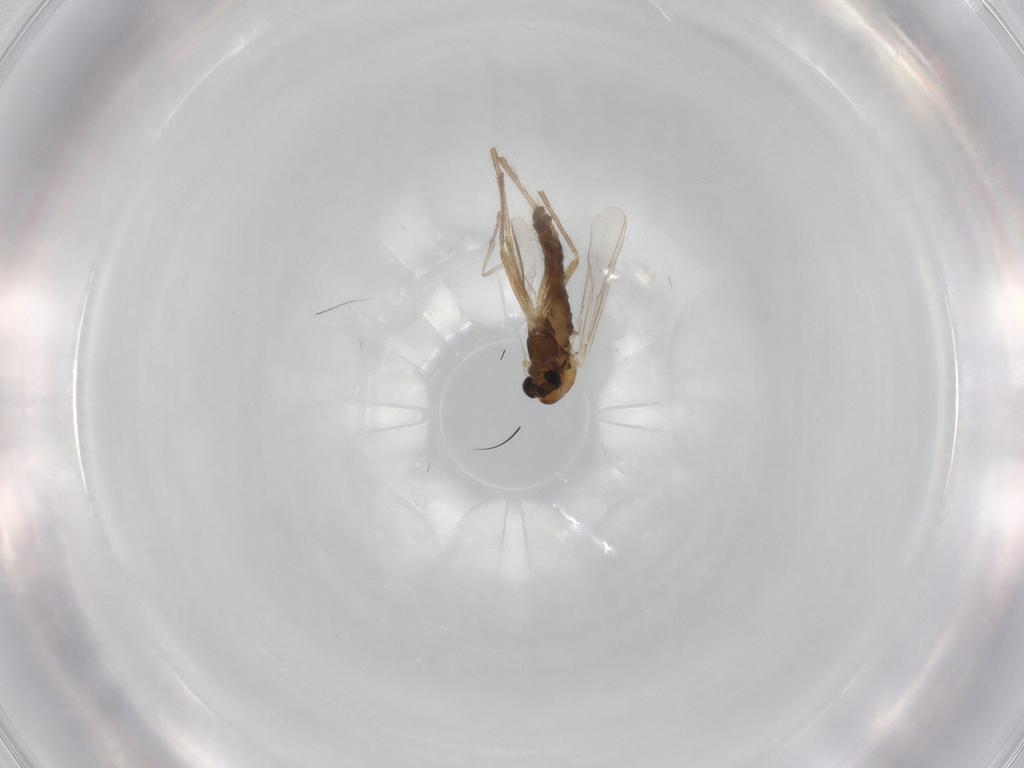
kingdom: Animalia
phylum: Arthropoda
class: Insecta
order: Diptera
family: Chironomidae
